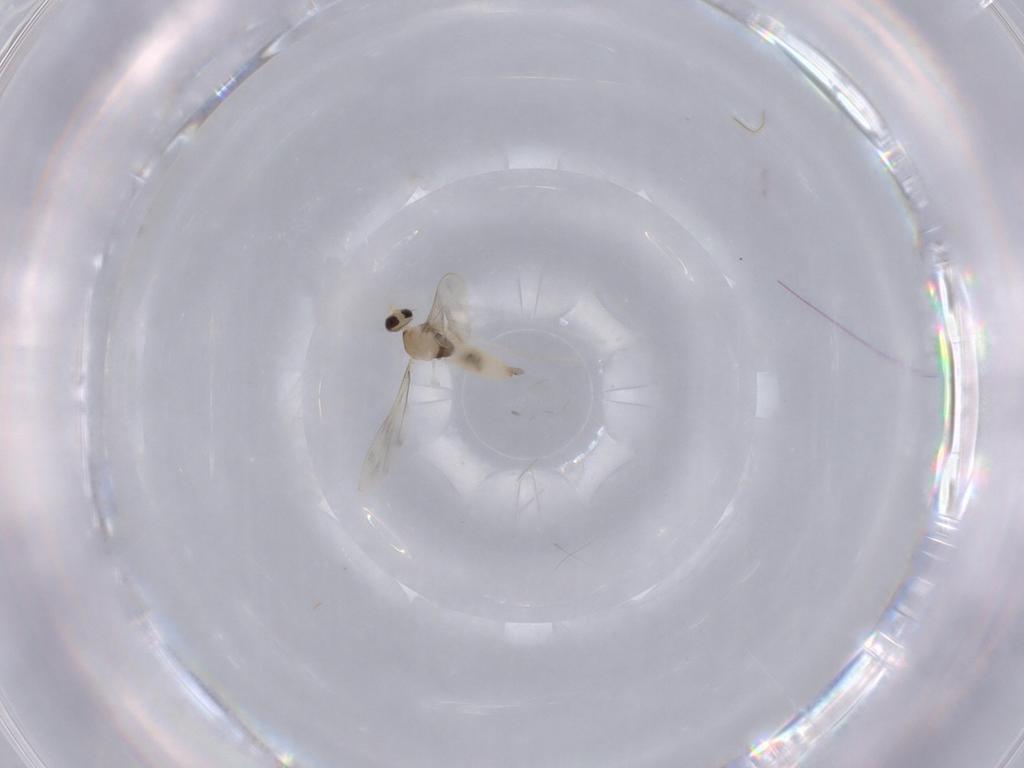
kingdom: Animalia
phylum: Arthropoda
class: Insecta
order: Diptera
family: Cecidomyiidae
